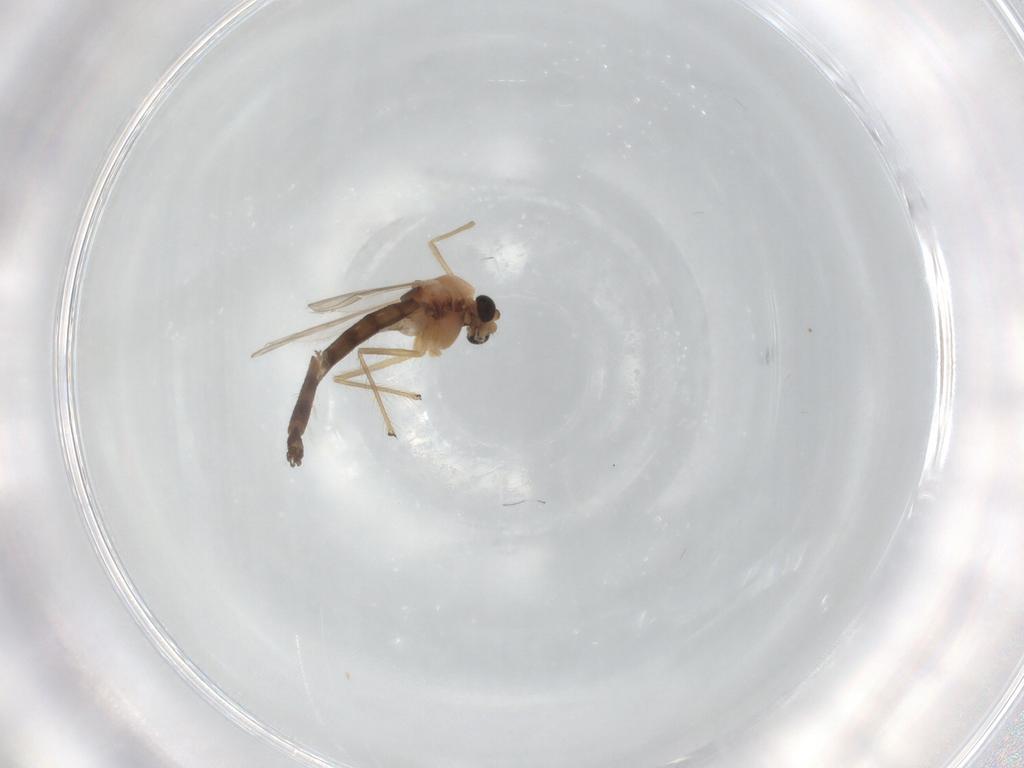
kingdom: Animalia
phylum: Arthropoda
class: Insecta
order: Diptera
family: Chironomidae
